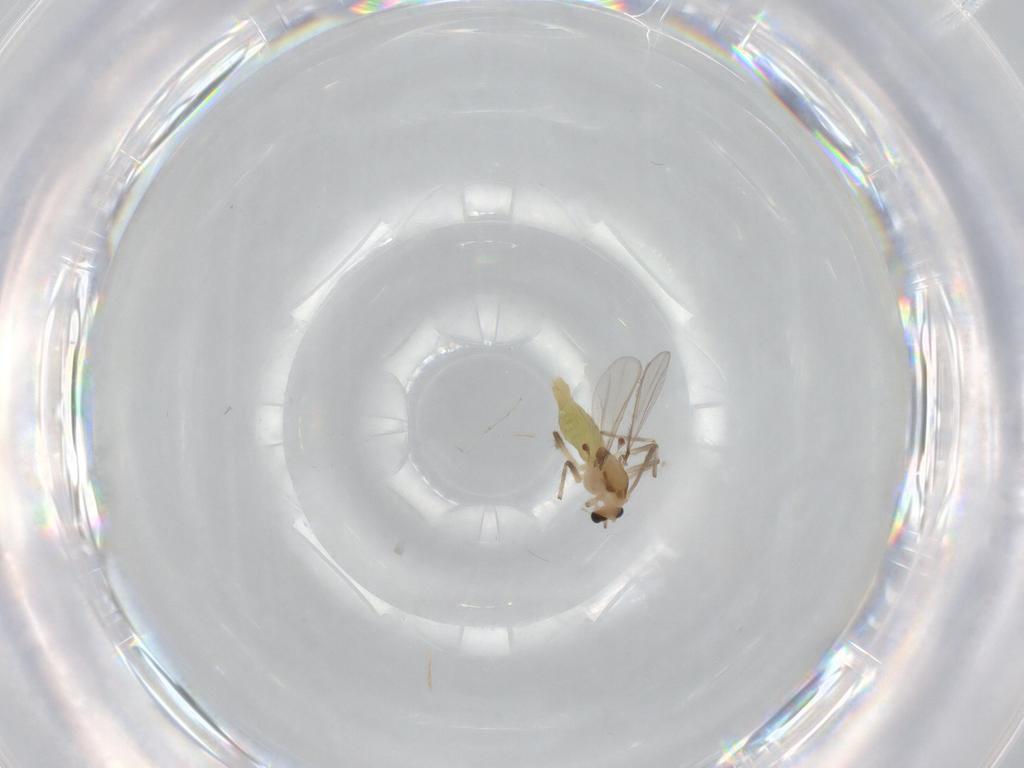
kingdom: Animalia
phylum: Arthropoda
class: Insecta
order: Diptera
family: Chironomidae
